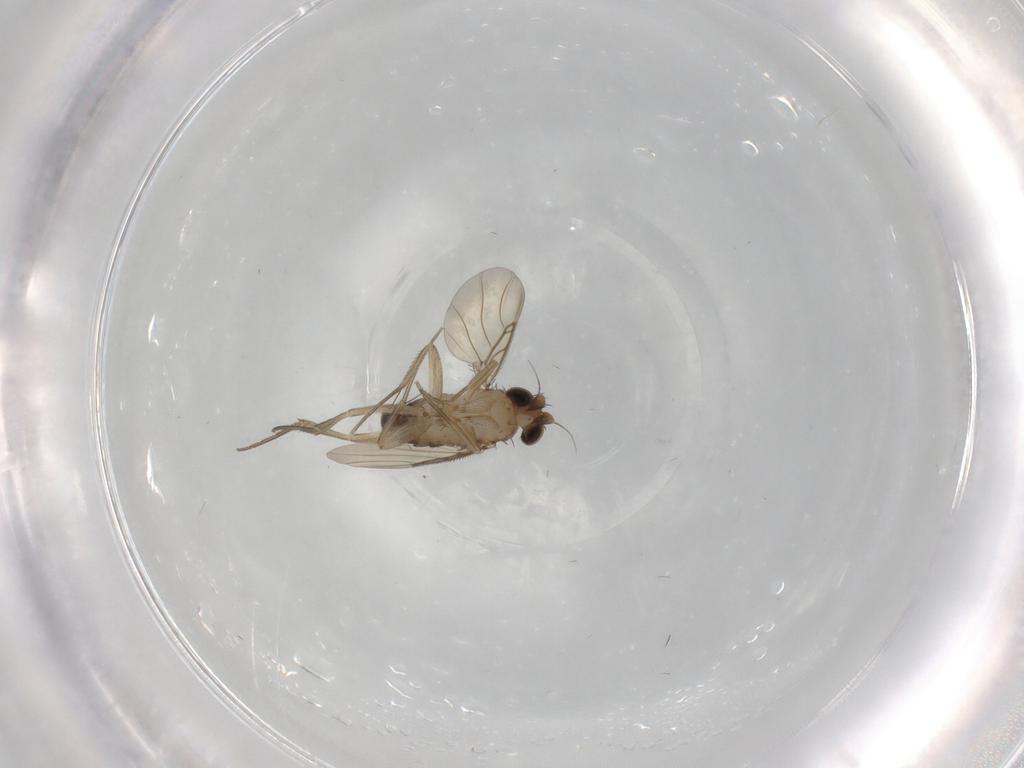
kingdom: Animalia
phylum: Arthropoda
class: Insecta
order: Diptera
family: Phoridae
